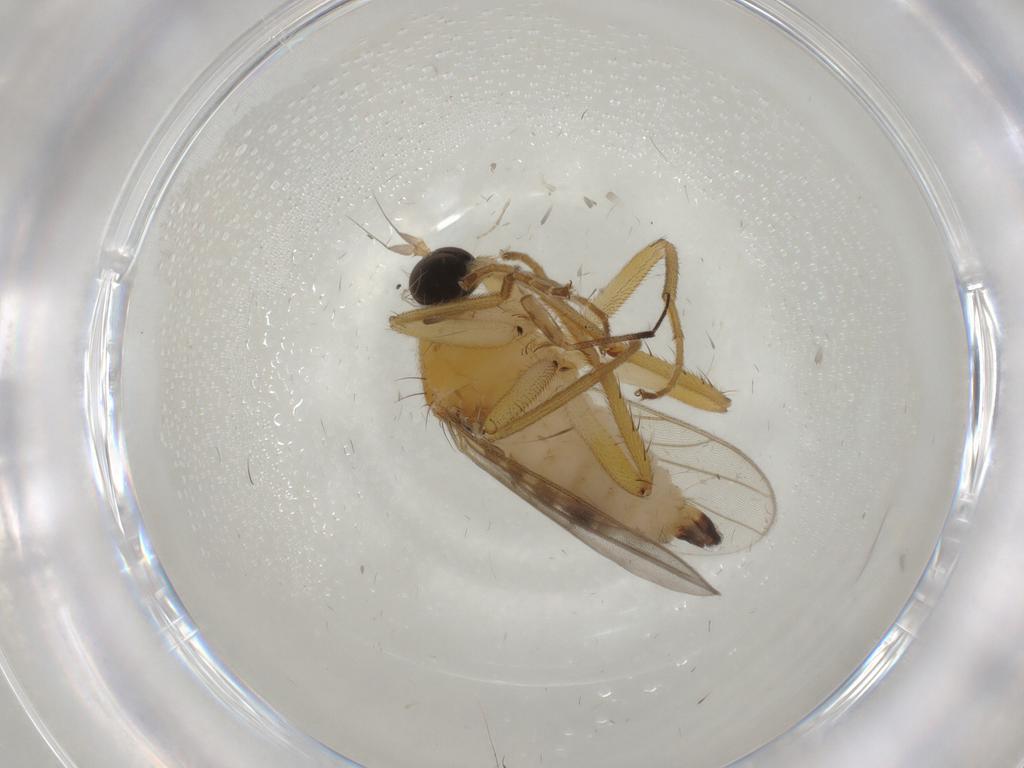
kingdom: Animalia
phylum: Arthropoda
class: Insecta
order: Diptera
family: Hybotidae
